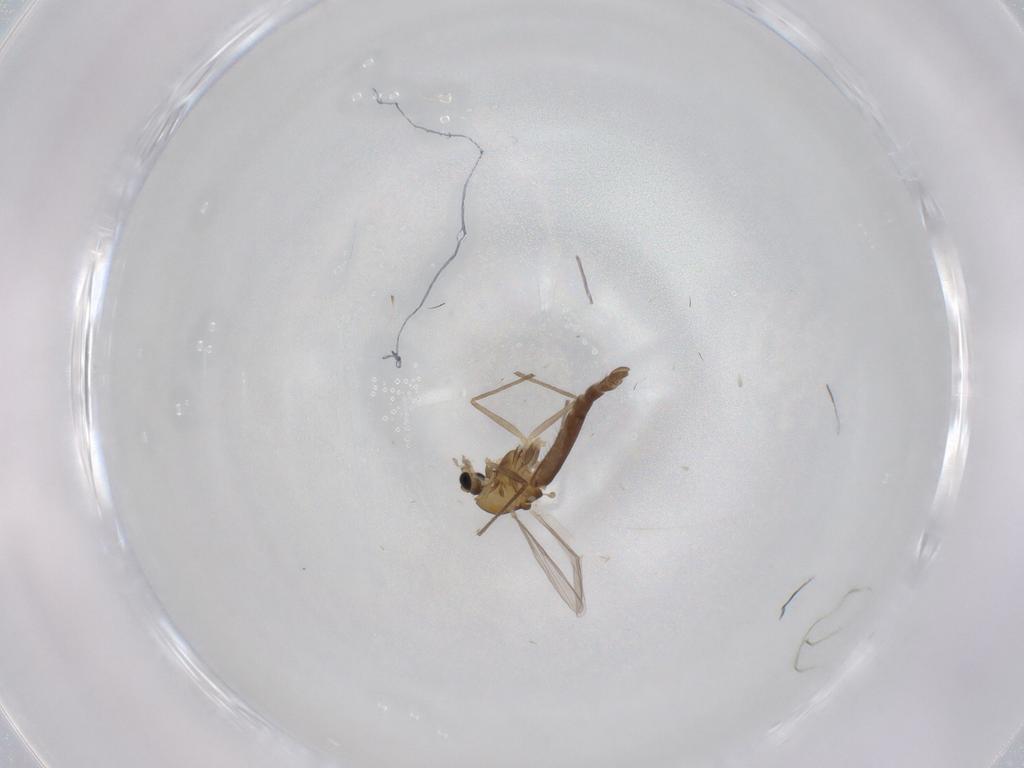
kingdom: Animalia
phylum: Arthropoda
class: Insecta
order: Diptera
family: Chironomidae
